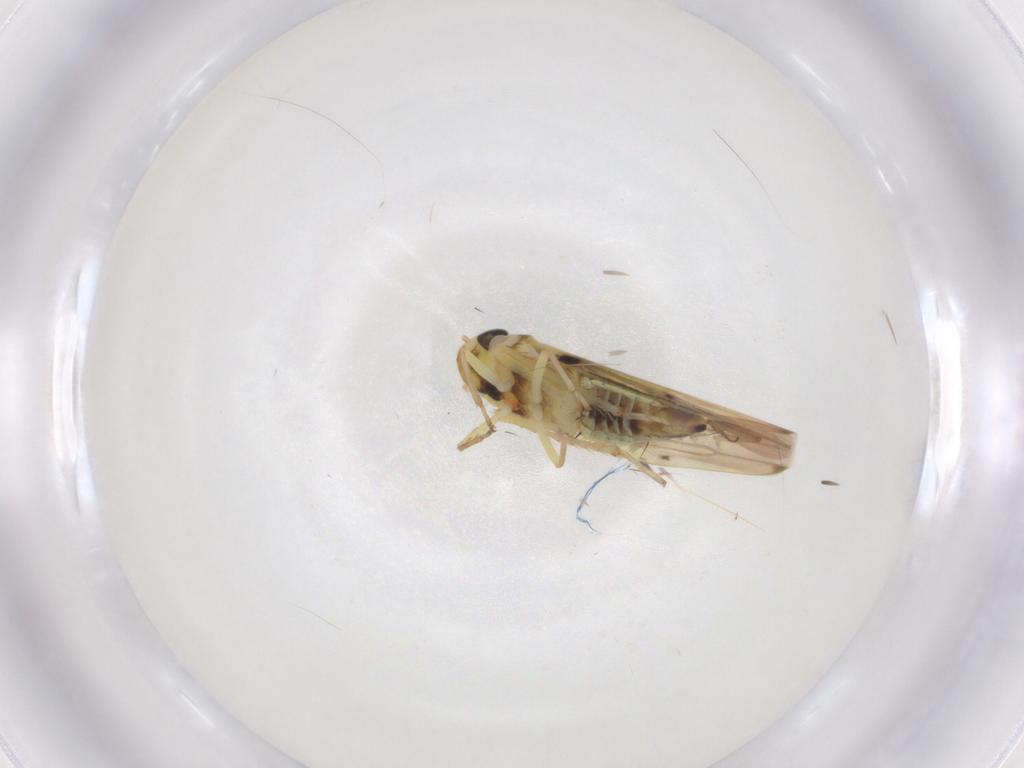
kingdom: Animalia
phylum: Arthropoda
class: Insecta
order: Hemiptera
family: Cicadellidae
